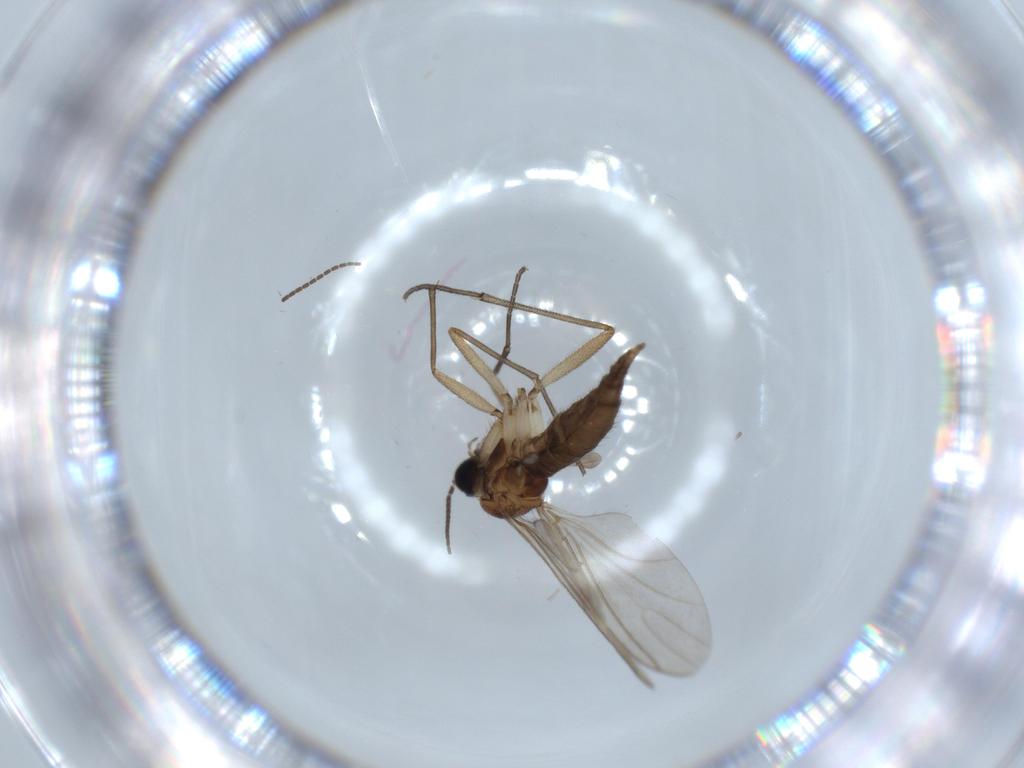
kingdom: Animalia
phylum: Arthropoda
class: Insecta
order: Diptera
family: Sciaridae
